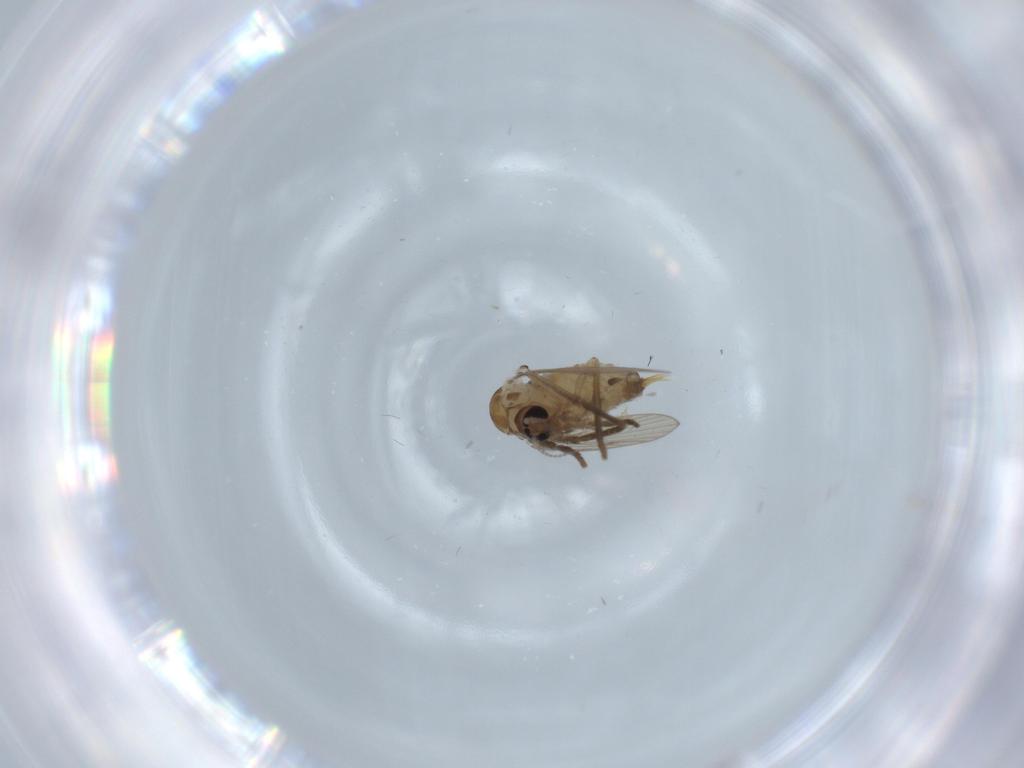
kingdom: Animalia
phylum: Arthropoda
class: Insecta
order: Diptera
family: Psychodidae
